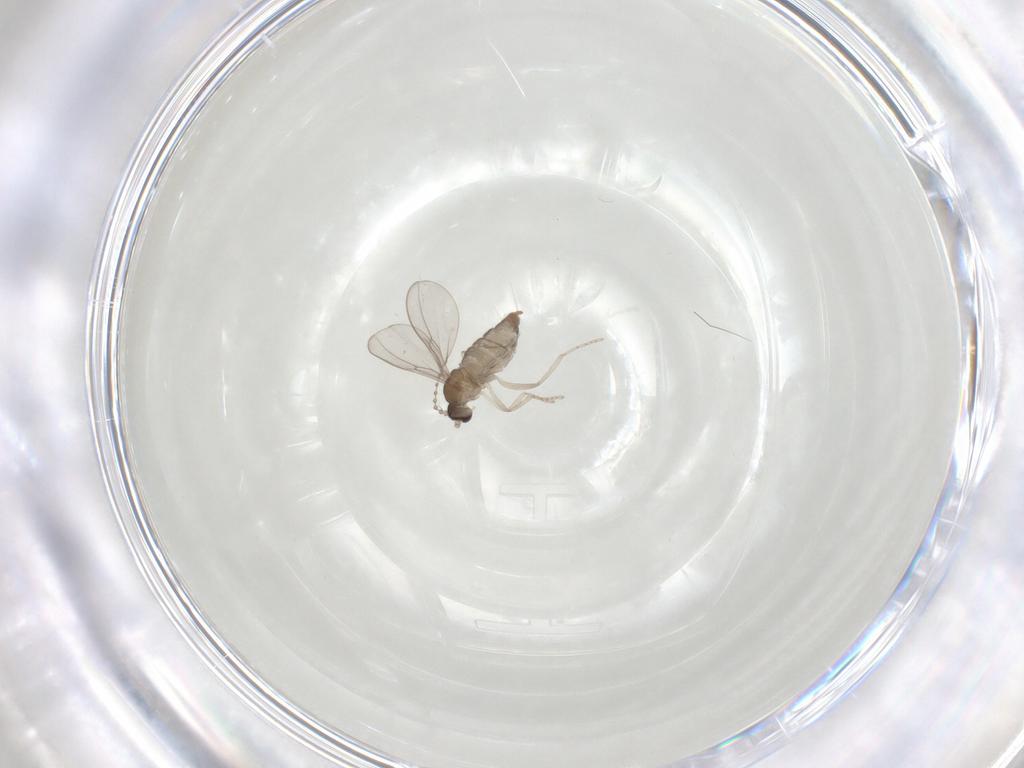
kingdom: Animalia
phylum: Arthropoda
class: Insecta
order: Diptera
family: Cecidomyiidae
